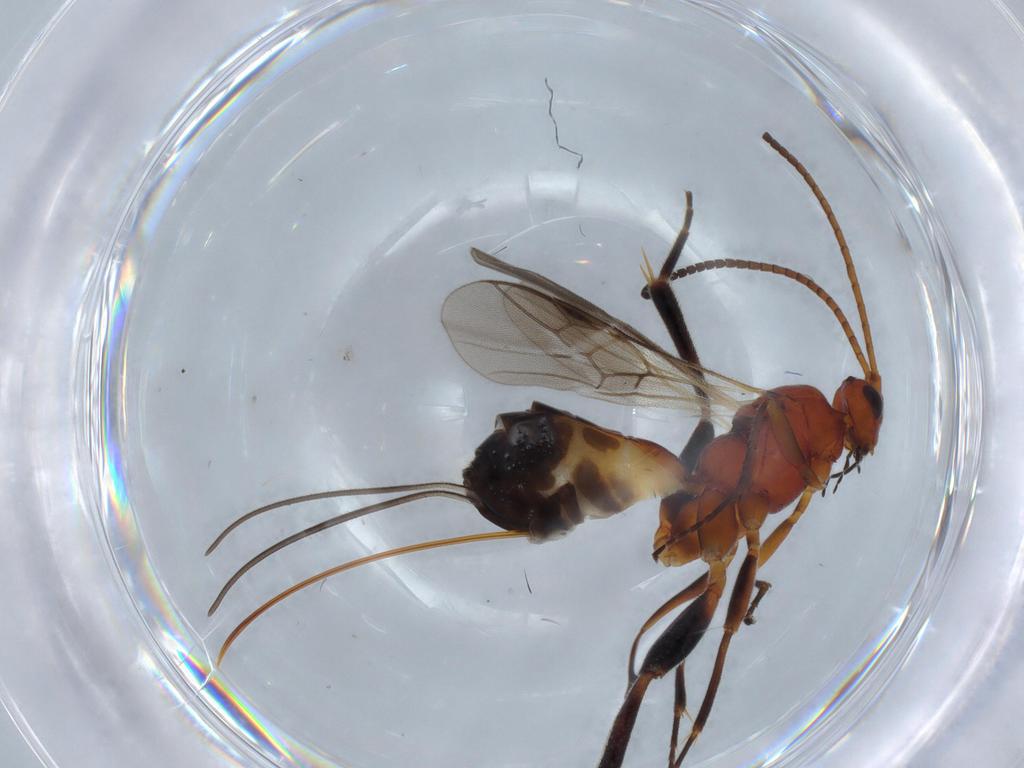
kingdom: Animalia
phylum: Arthropoda
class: Insecta
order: Hymenoptera
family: Braconidae
